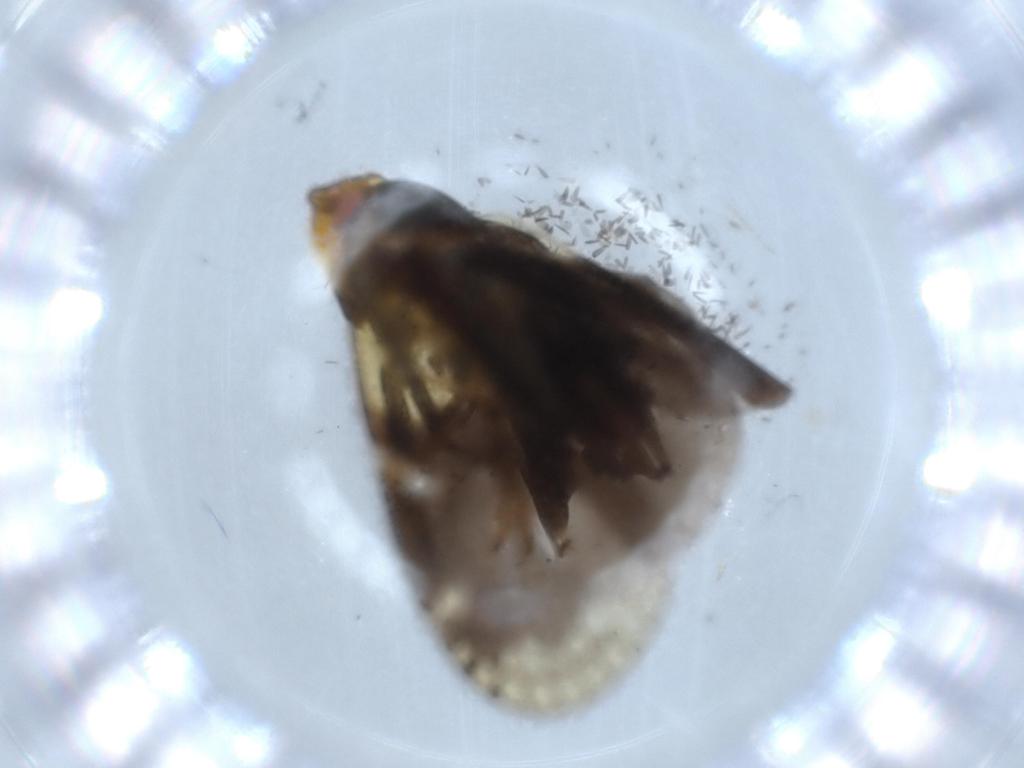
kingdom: Animalia
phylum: Arthropoda
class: Insecta
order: Hemiptera
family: Cixiidae
